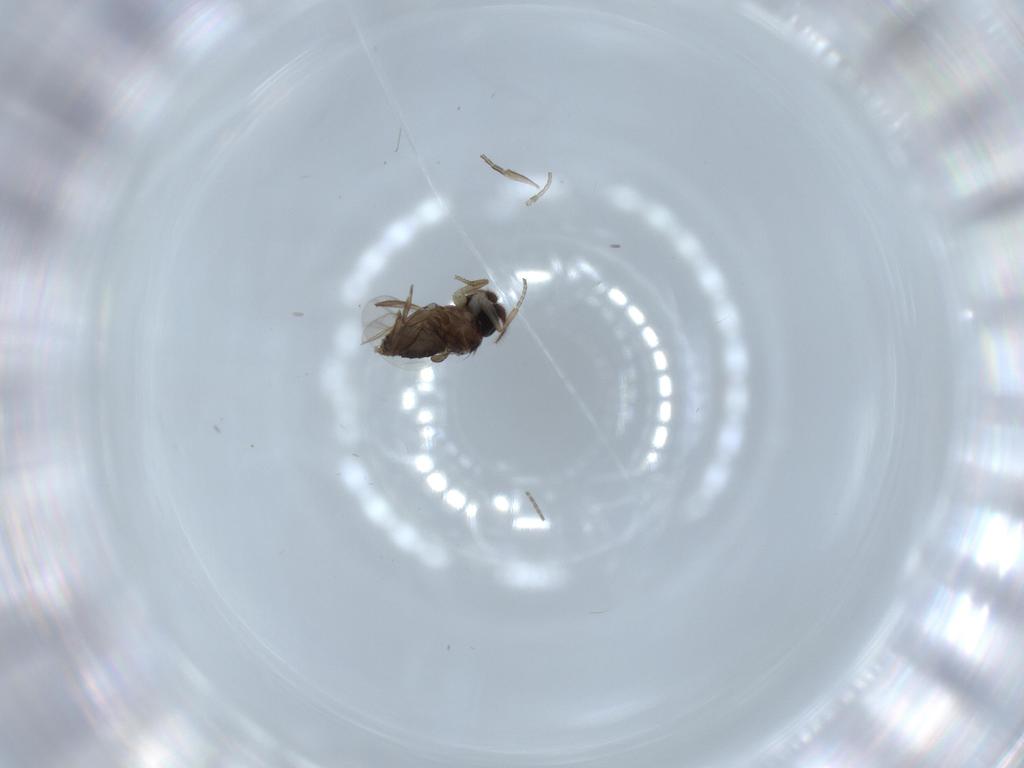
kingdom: Animalia
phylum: Arthropoda
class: Insecta
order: Diptera
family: Phoridae
